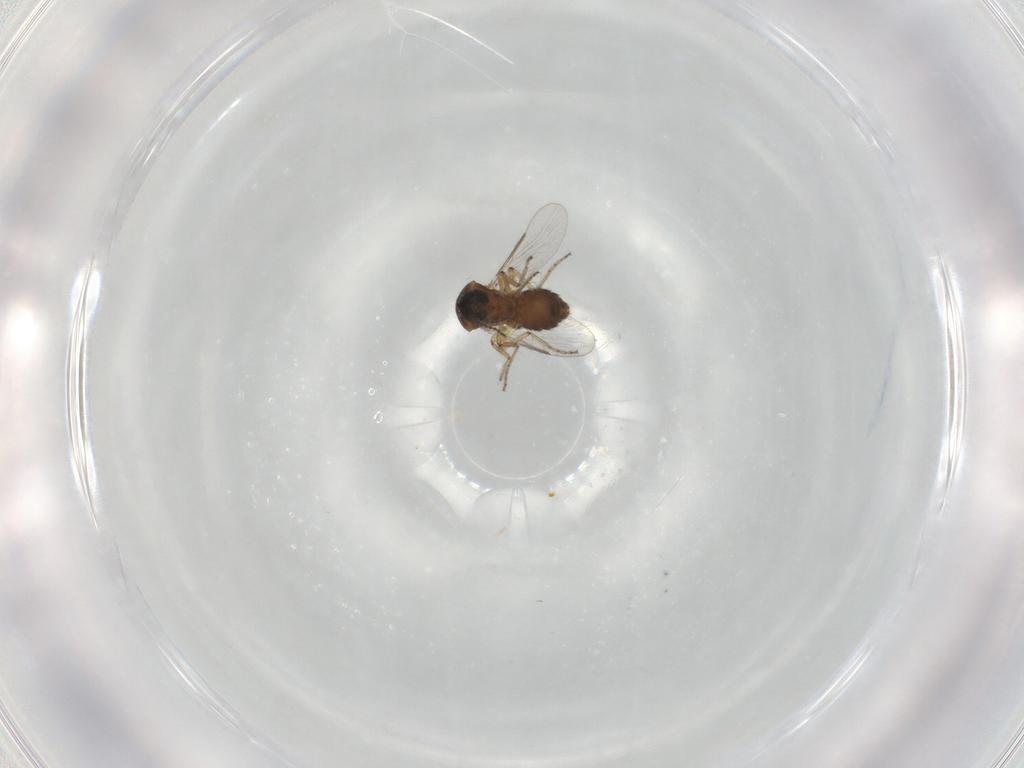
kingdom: Animalia
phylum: Arthropoda
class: Insecta
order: Diptera
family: Ceratopogonidae
